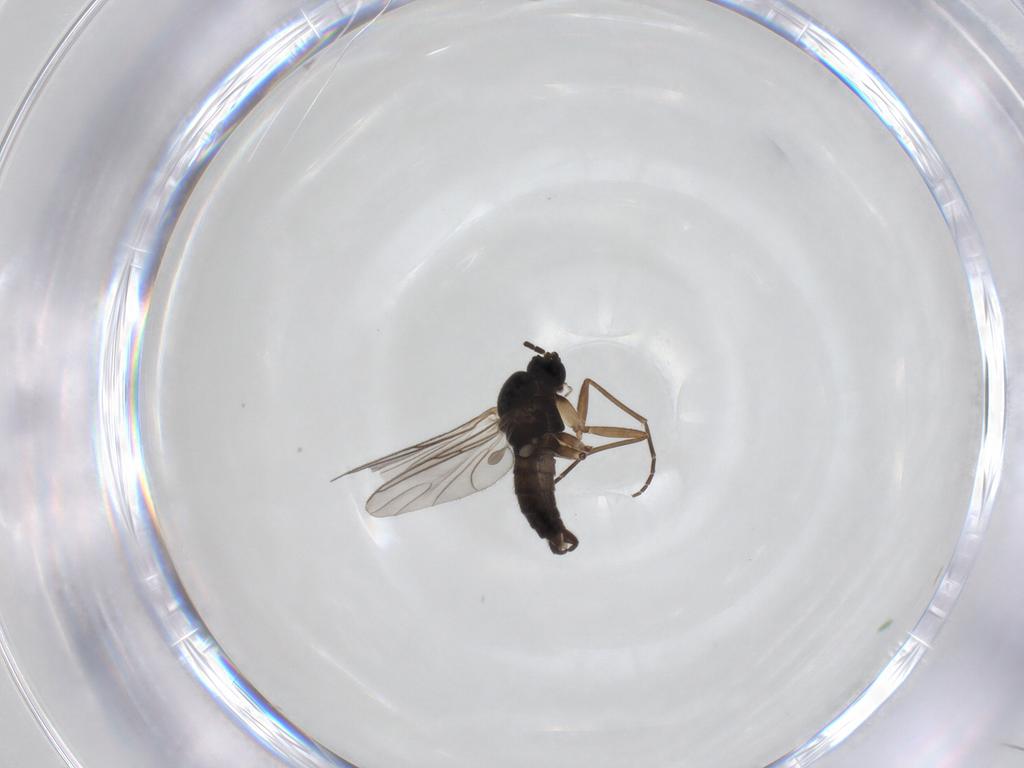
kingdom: Animalia
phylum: Arthropoda
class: Insecta
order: Diptera
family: Sciaridae
